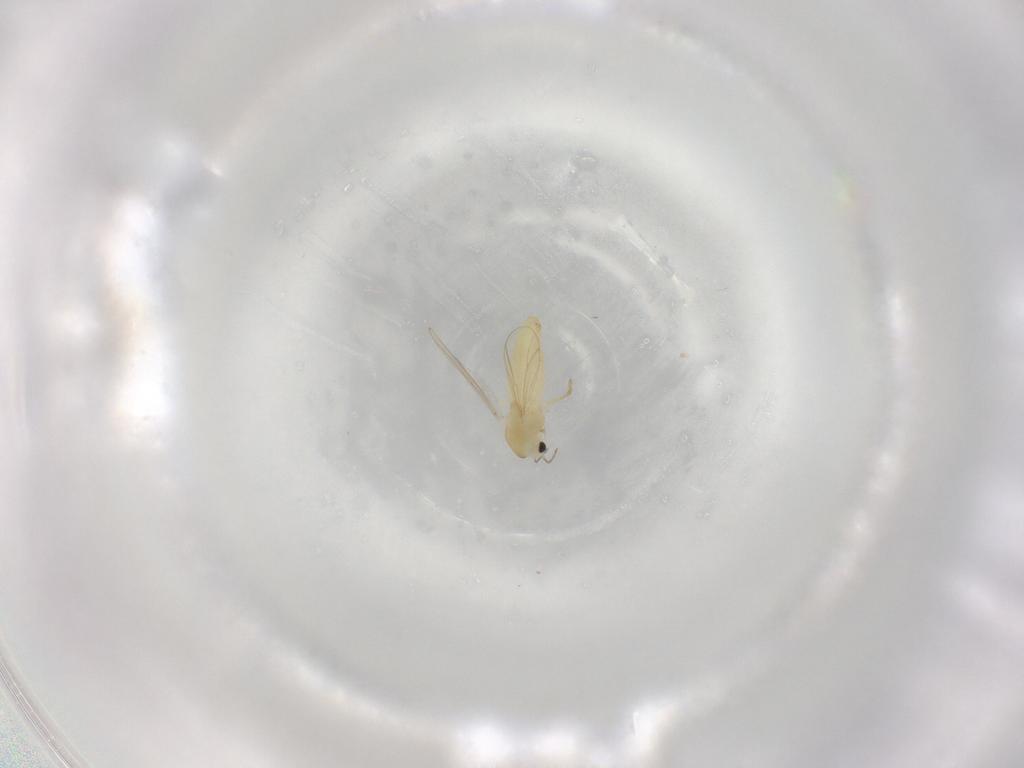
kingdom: Animalia
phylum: Arthropoda
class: Insecta
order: Diptera
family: Chironomidae
